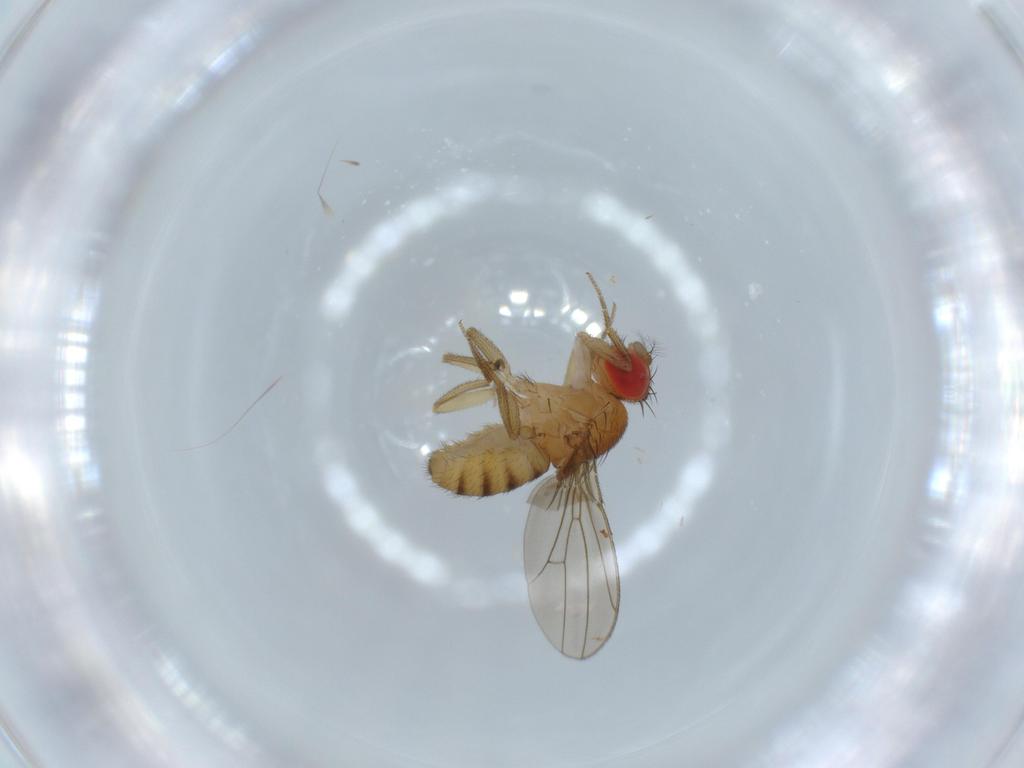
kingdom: Animalia
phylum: Arthropoda
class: Insecta
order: Diptera
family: Drosophilidae
